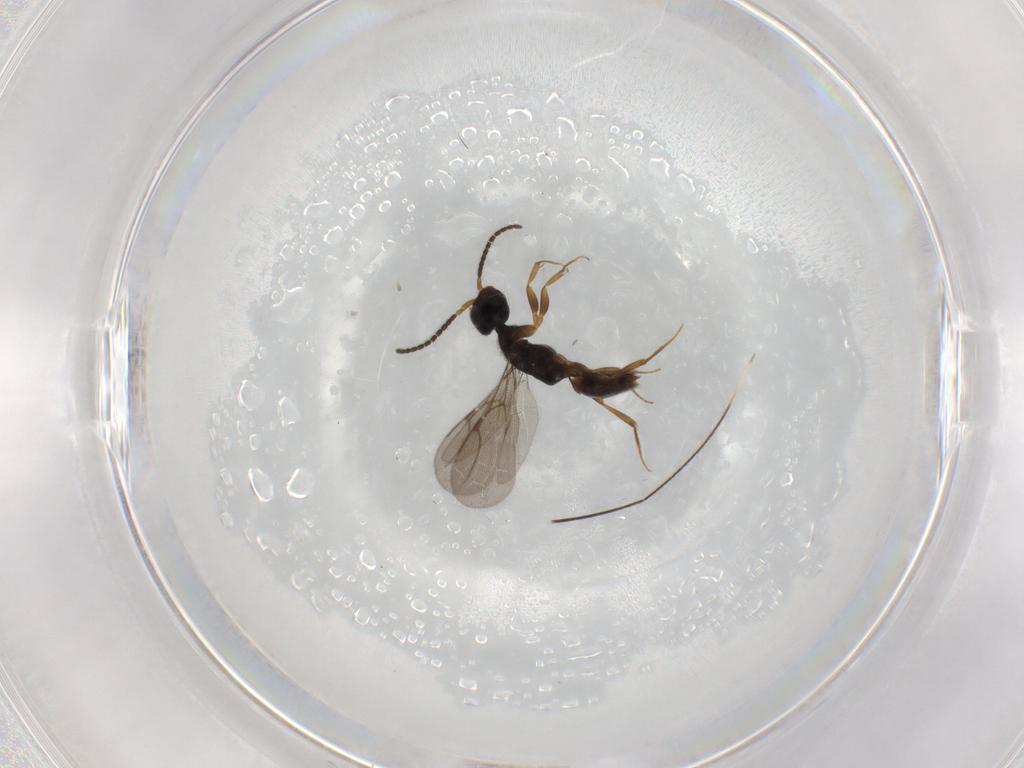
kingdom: Animalia
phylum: Arthropoda
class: Insecta
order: Hymenoptera
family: Bethylidae
